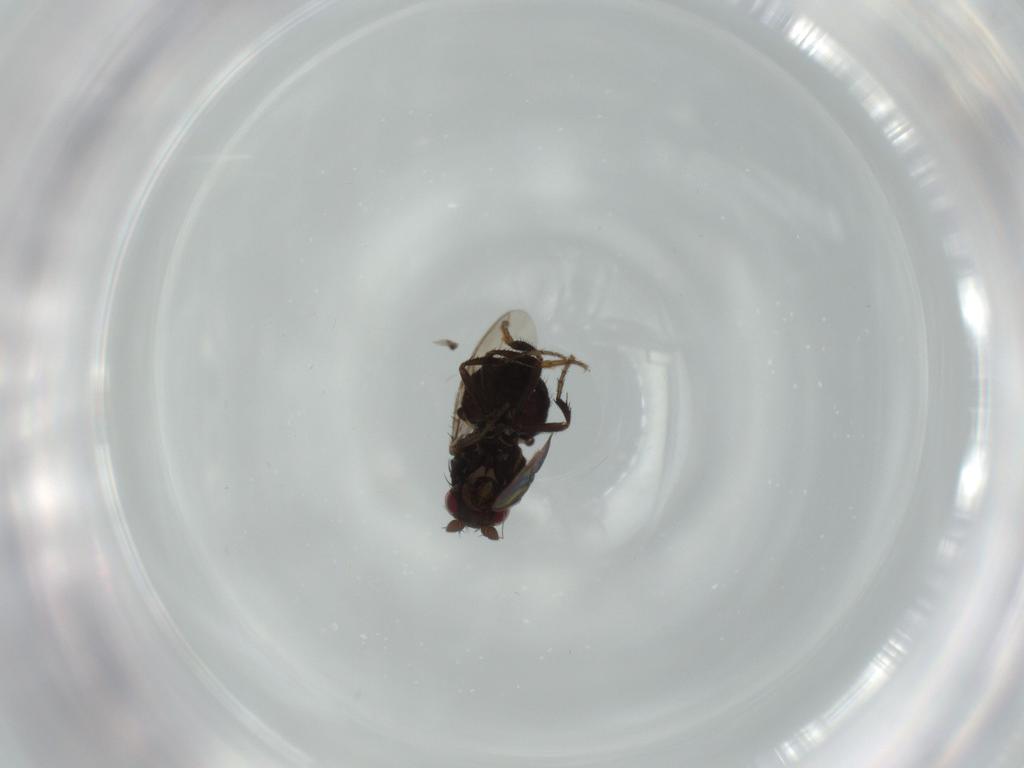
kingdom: Animalia
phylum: Arthropoda
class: Insecta
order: Diptera
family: Sphaeroceridae
